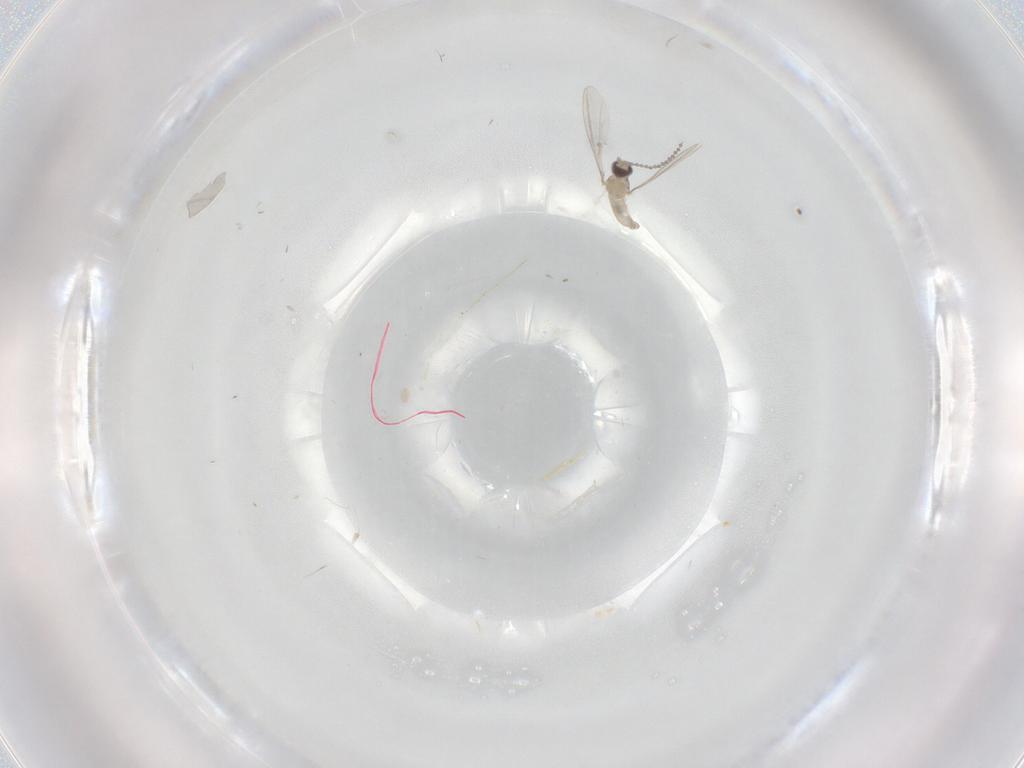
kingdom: Animalia
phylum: Arthropoda
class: Insecta
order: Diptera
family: Cecidomyiidae
